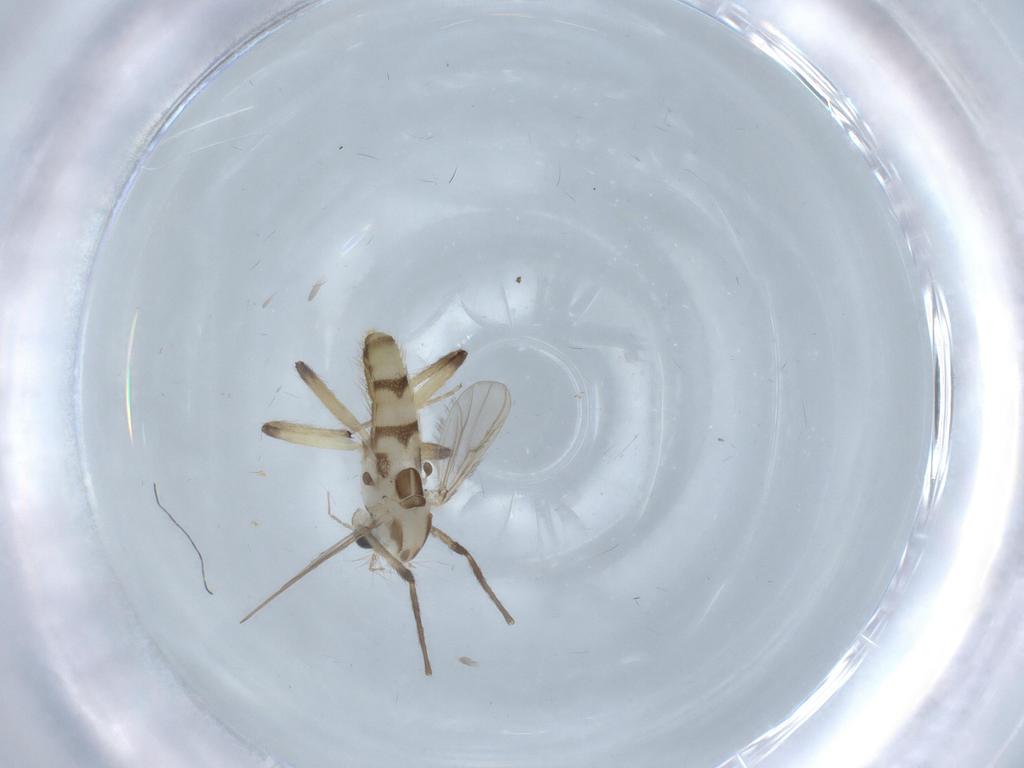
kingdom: Animalia
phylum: Arthropoda
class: Insecta
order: Diptera
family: Chironomidae
